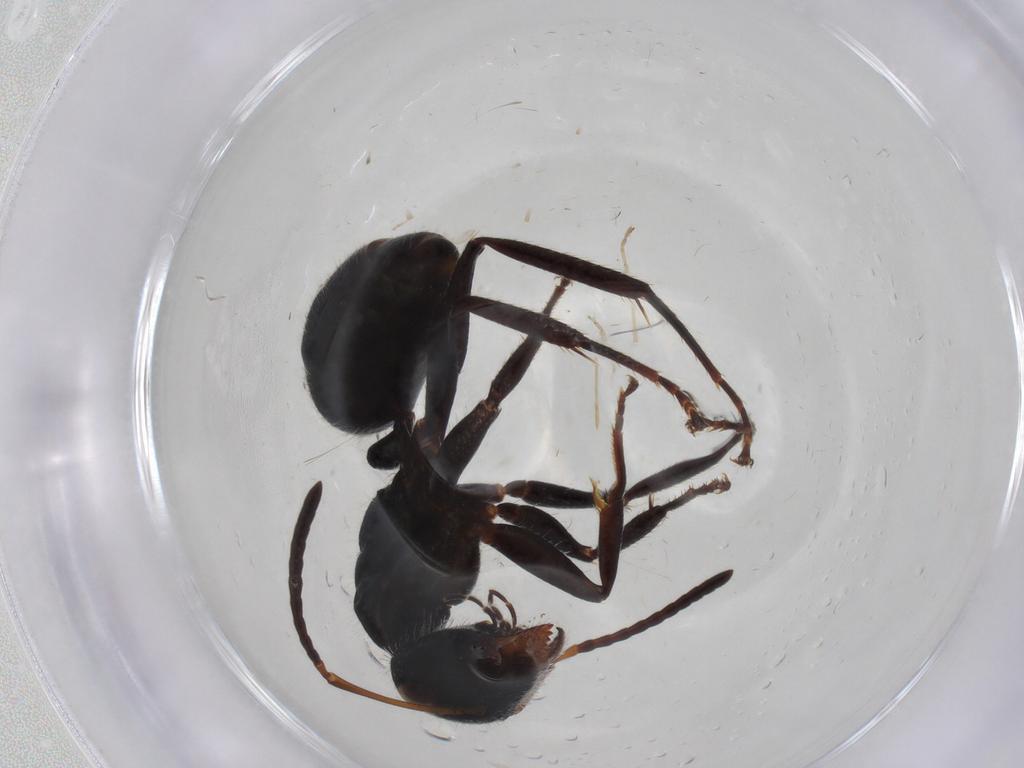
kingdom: Animalia
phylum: Arthropoda
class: Insecta
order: Hymenoptera
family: Formicidae
